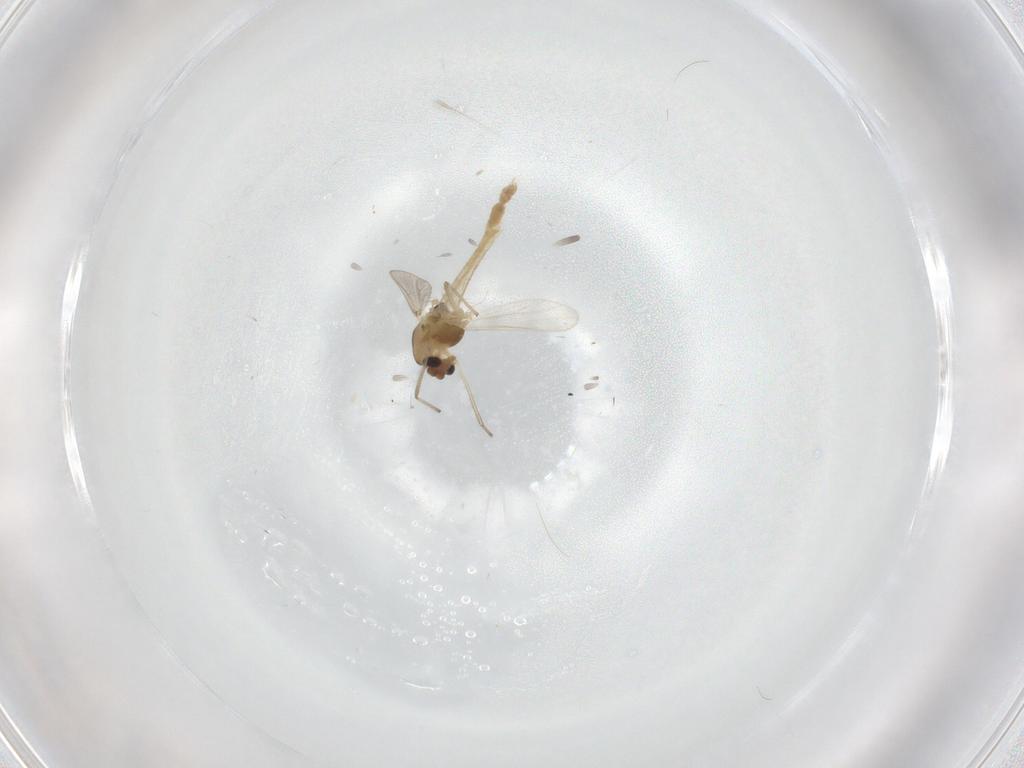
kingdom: Animalia
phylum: Arthropoda
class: Insecta
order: Diptera
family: Chironomidae
